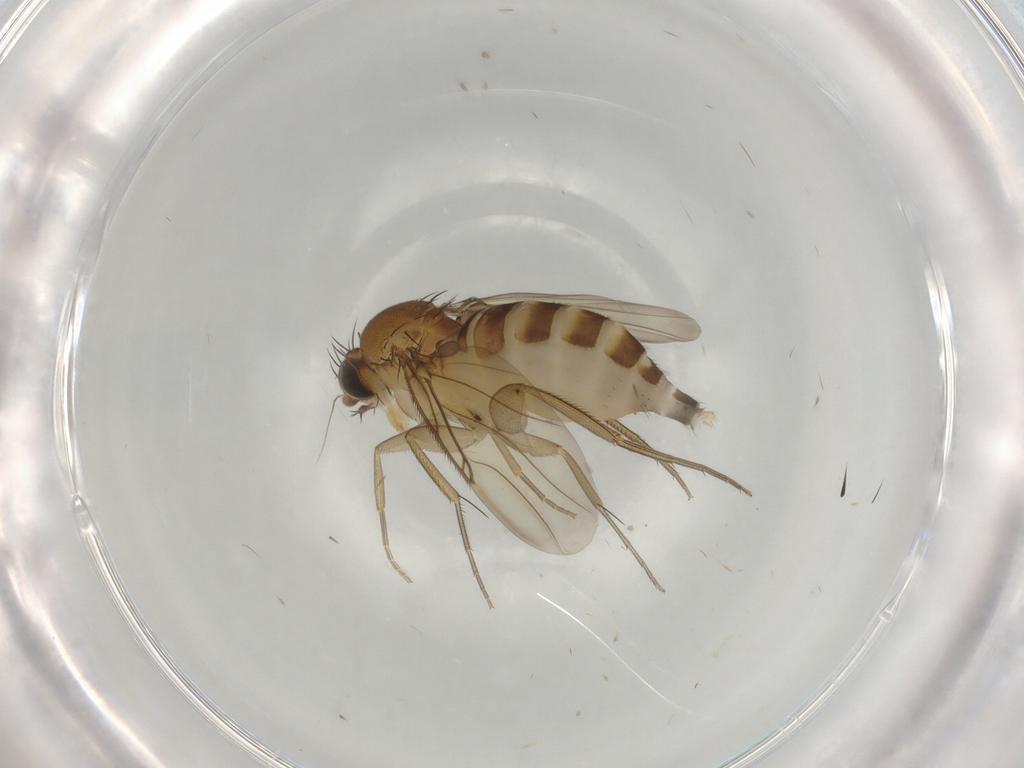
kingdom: Animalia
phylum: Arthropoda
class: Insecta
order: Diptera
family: Phoridae
